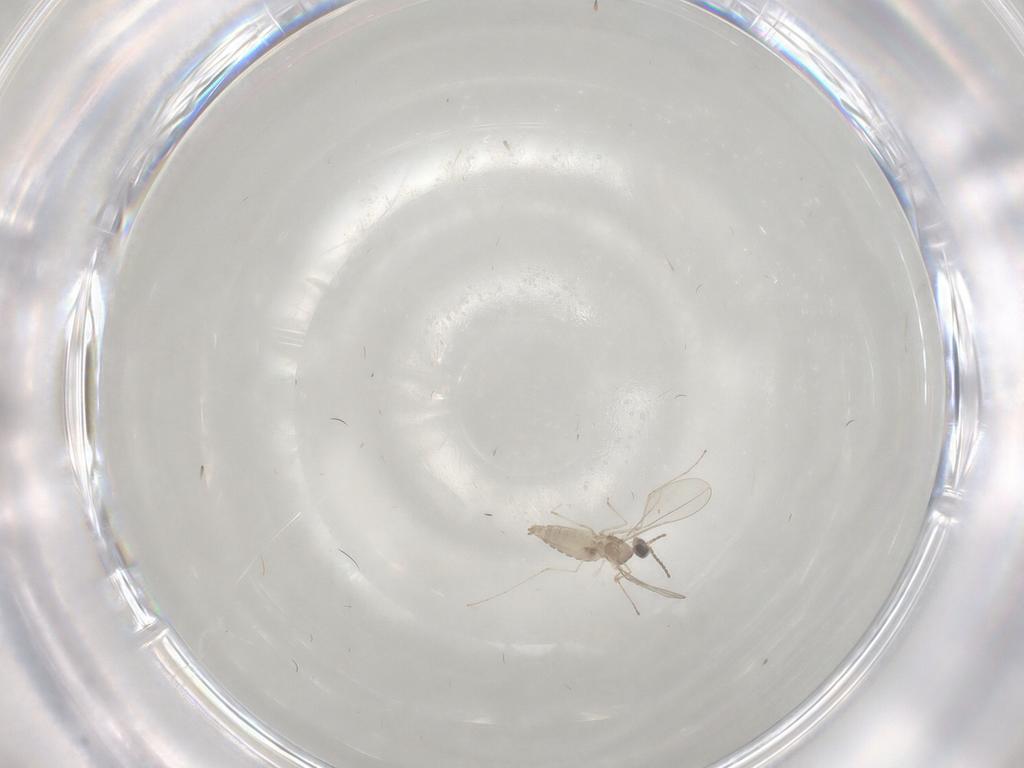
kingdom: Animalia
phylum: Arthropoda
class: Insecta
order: Diptera
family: Cecidomyiidae
